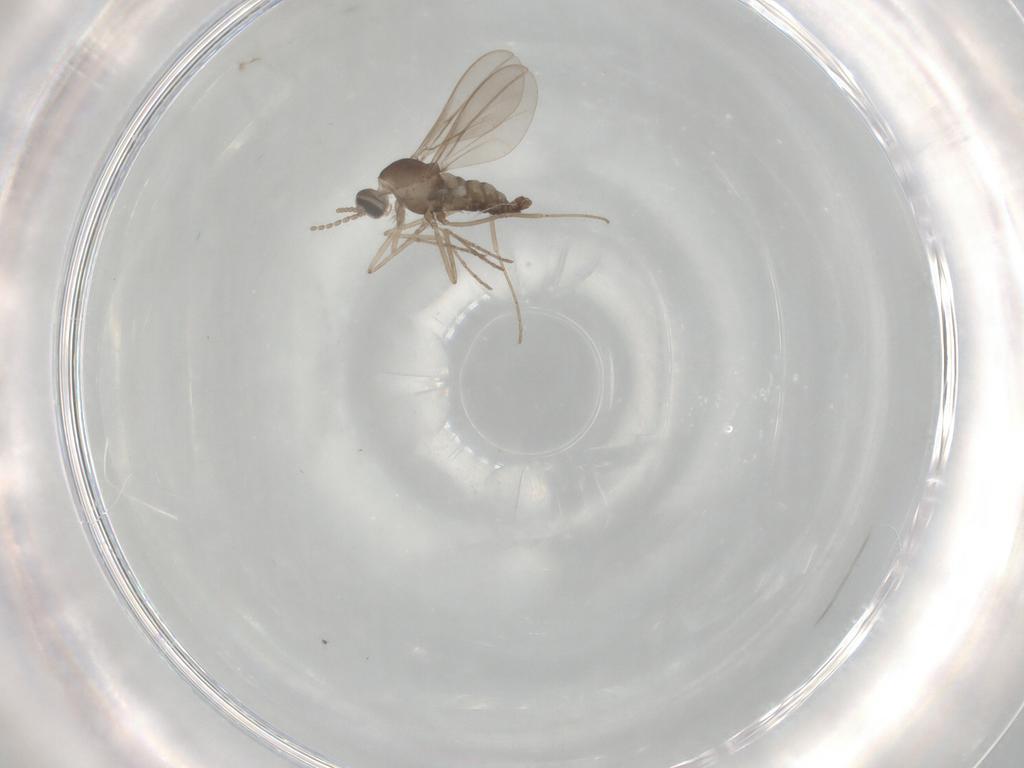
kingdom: Animalia
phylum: Arthropoda
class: Insecta
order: Diptera
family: Cecidomyiidae
